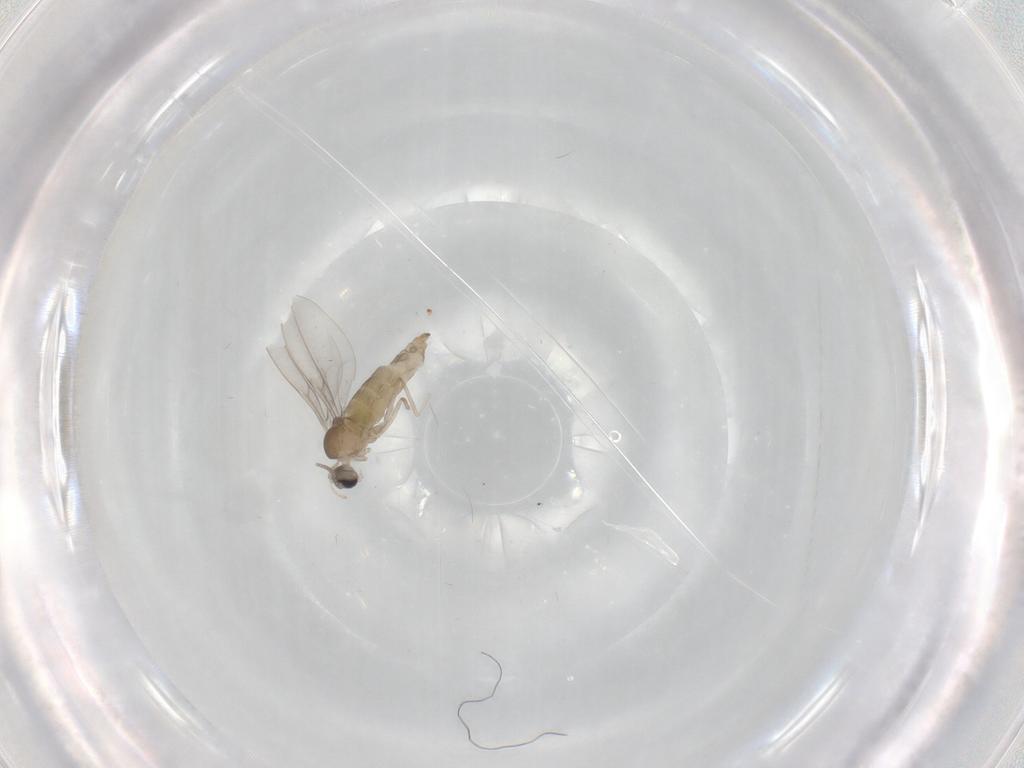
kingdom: Animalia
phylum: Arthropoda
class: Insecta
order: Diptera
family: Cecidomyiidae
